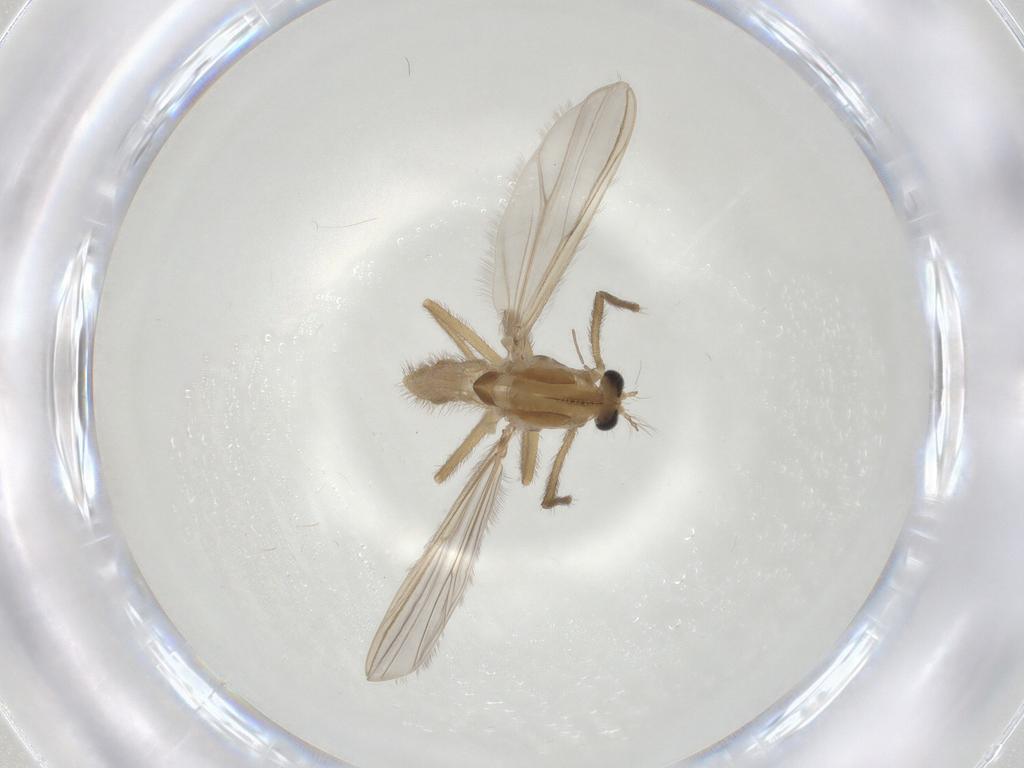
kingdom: Animalia
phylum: Arthropoda
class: Insecta
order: Diptera
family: Chironomidae
